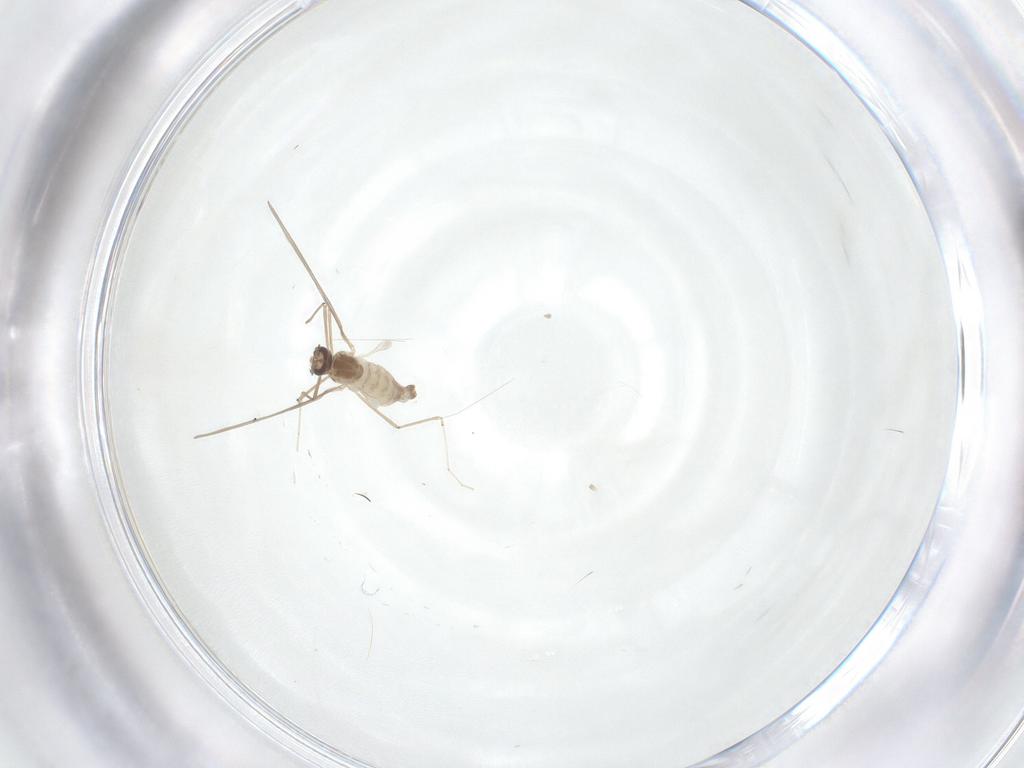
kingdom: Animalia
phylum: Arthropoda
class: Insecta
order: Diptera
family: Cecidomyiidae
